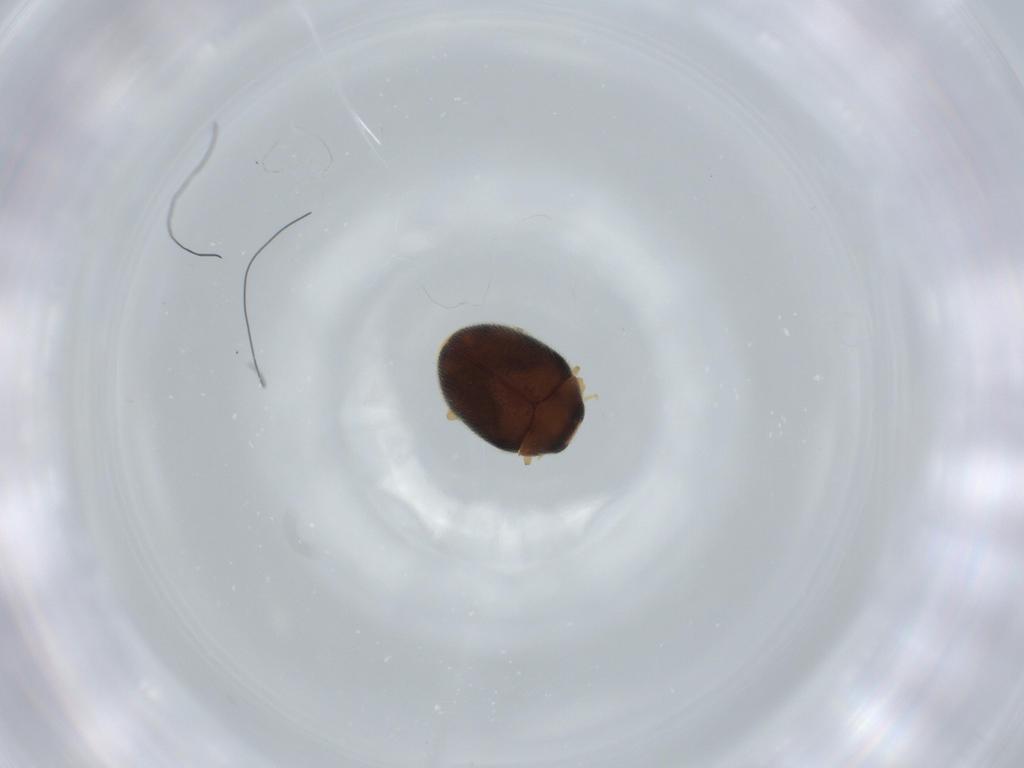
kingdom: Animalia
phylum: Arthropoda
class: Insecta
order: Coleoptera
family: Coccinellidae
